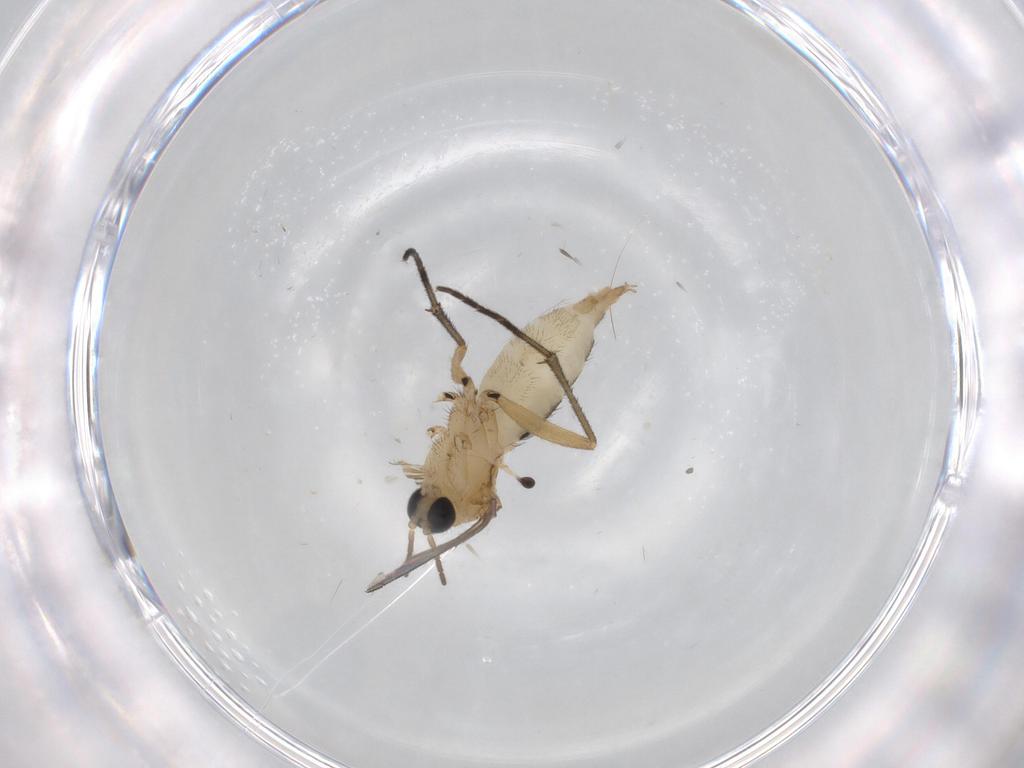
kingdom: Animalia
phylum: Arthropoda
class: Insecta
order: Diptera
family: Sciaridae
